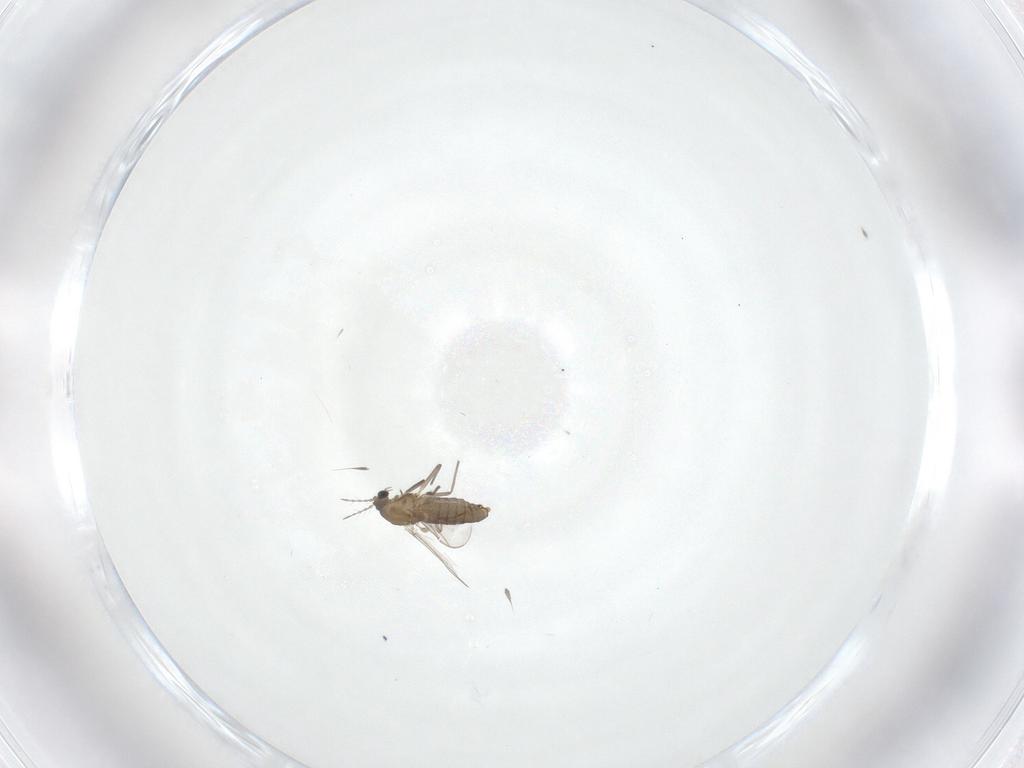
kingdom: Animalia
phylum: Arthropoda
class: Insecta
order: Diptera
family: Chironomidae
